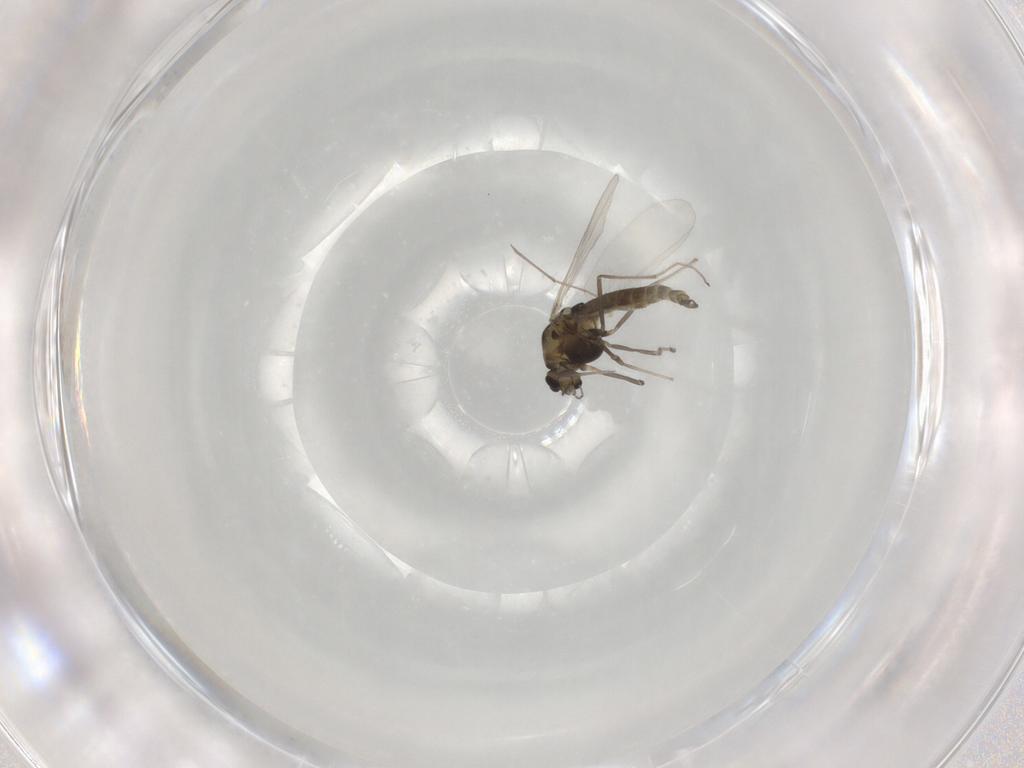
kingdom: Animalia
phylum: Arthropoda
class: Insecta
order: Diptera
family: Chironomidae
